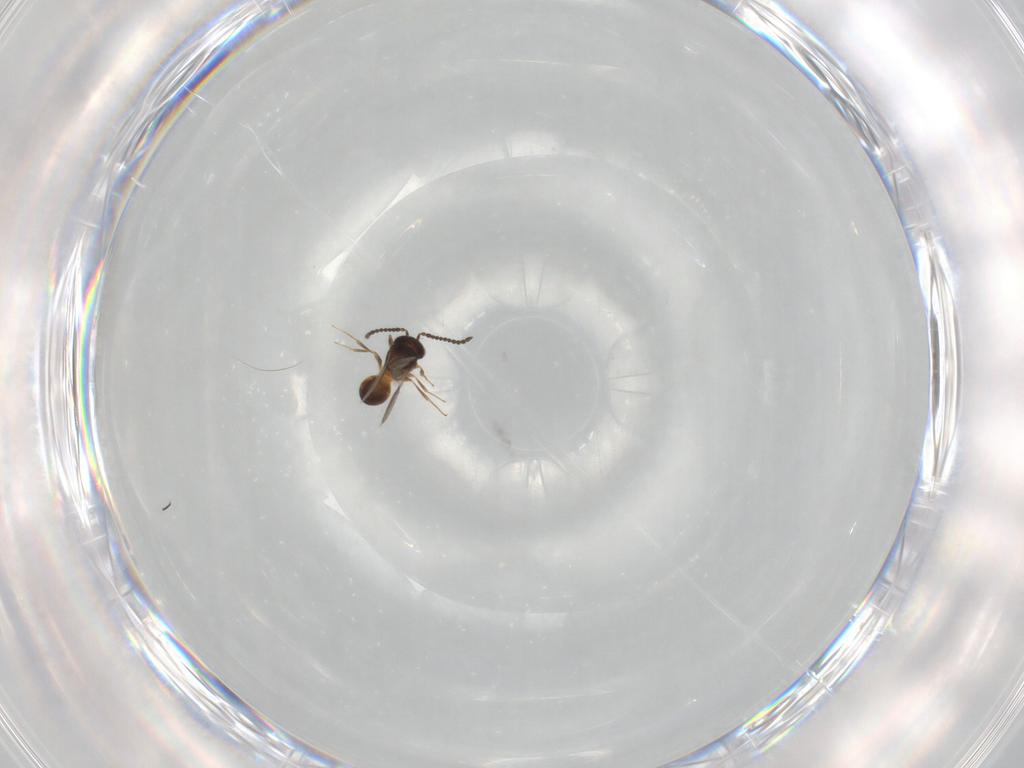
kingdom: Animalia
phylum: Arthropoda
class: Insecta
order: Hymenoptera
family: Scelionidae
